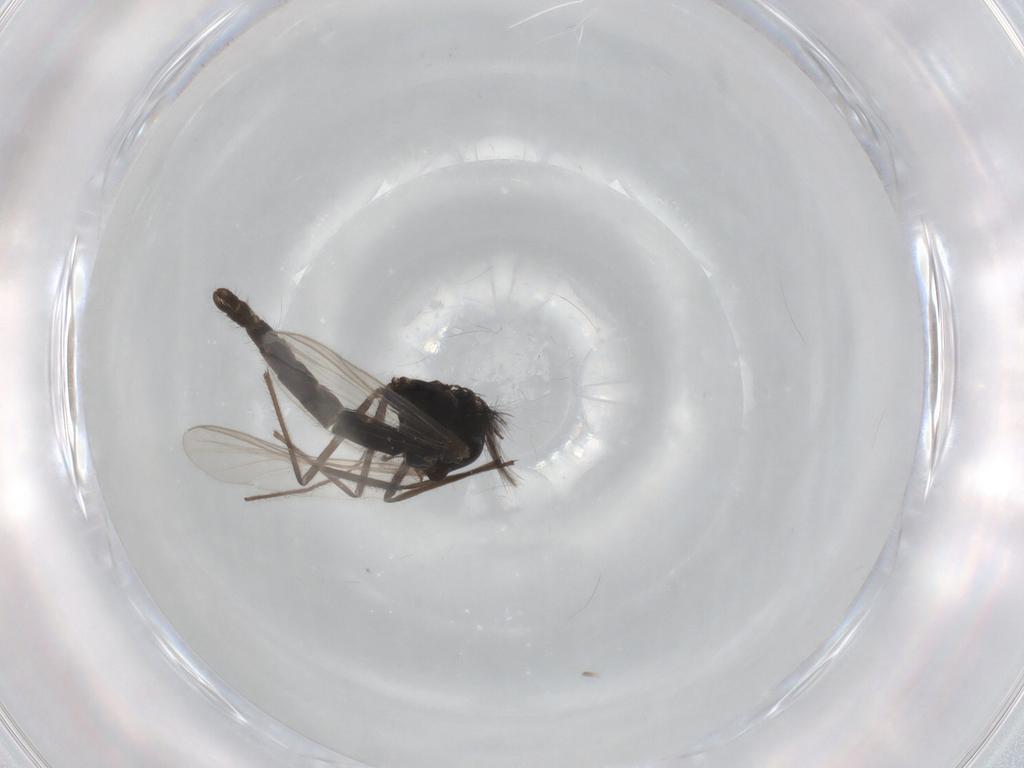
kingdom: Animalia
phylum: Arthropoda
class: Insecta
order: Diptera
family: Chironomidae
